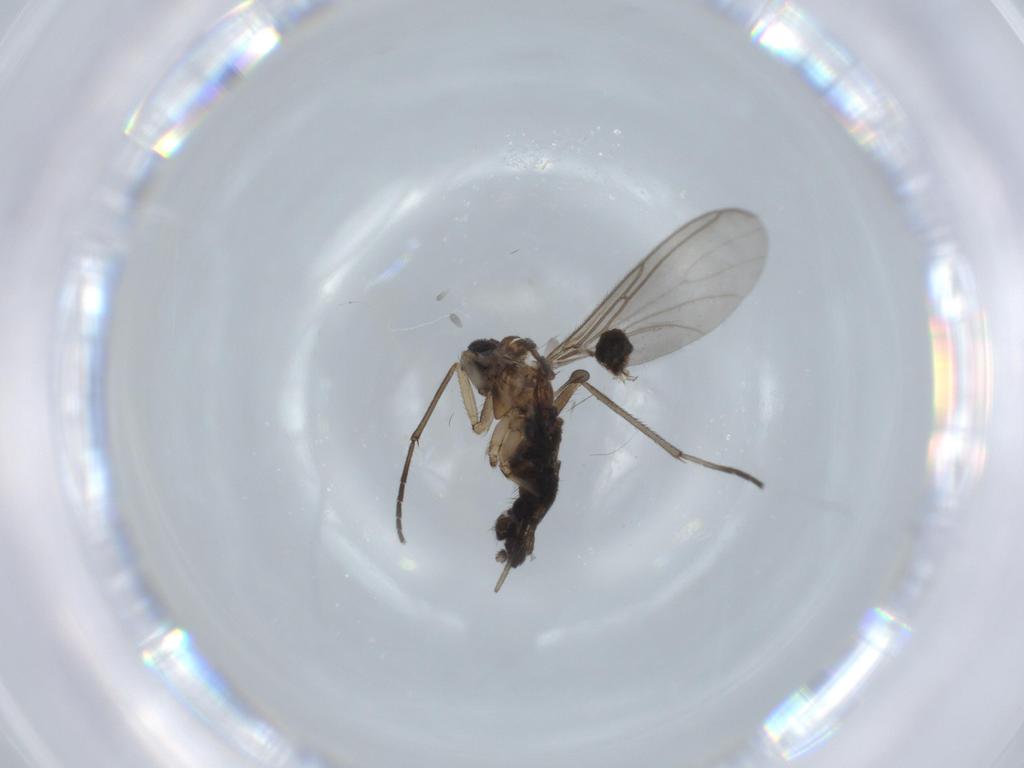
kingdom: Animalia
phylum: Arthropoda
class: Insecta
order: Diptera
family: Sciaridae
